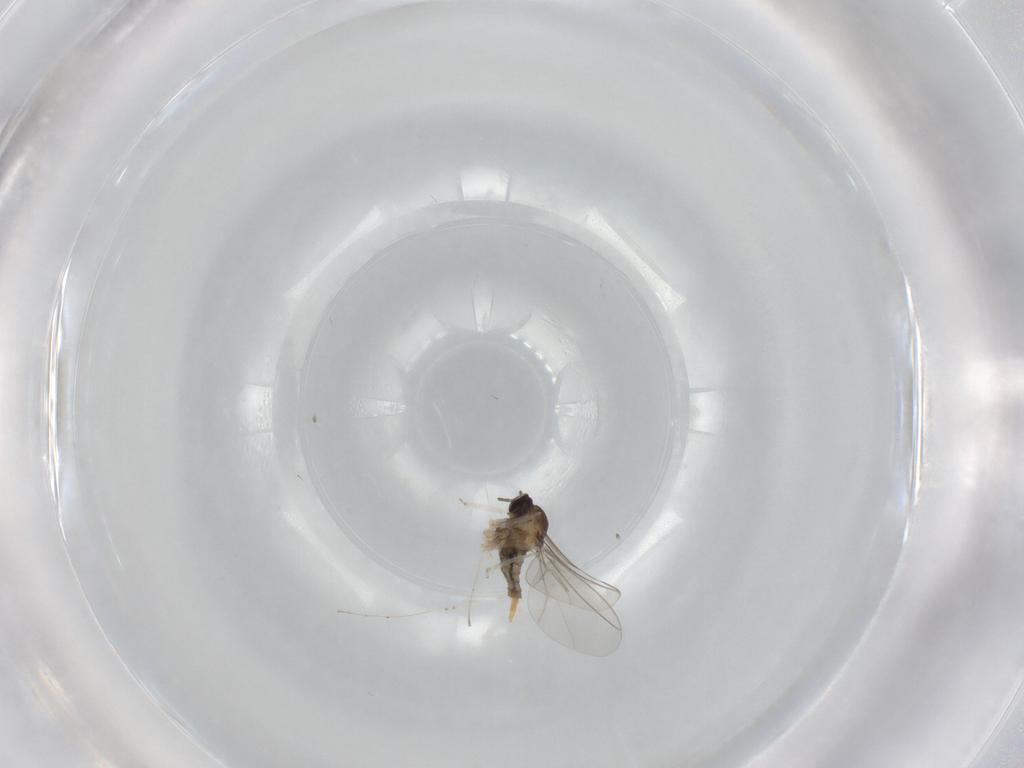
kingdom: Animalia
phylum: Arthropoda
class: Insecta
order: Diptera
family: Cecidomyiidae
